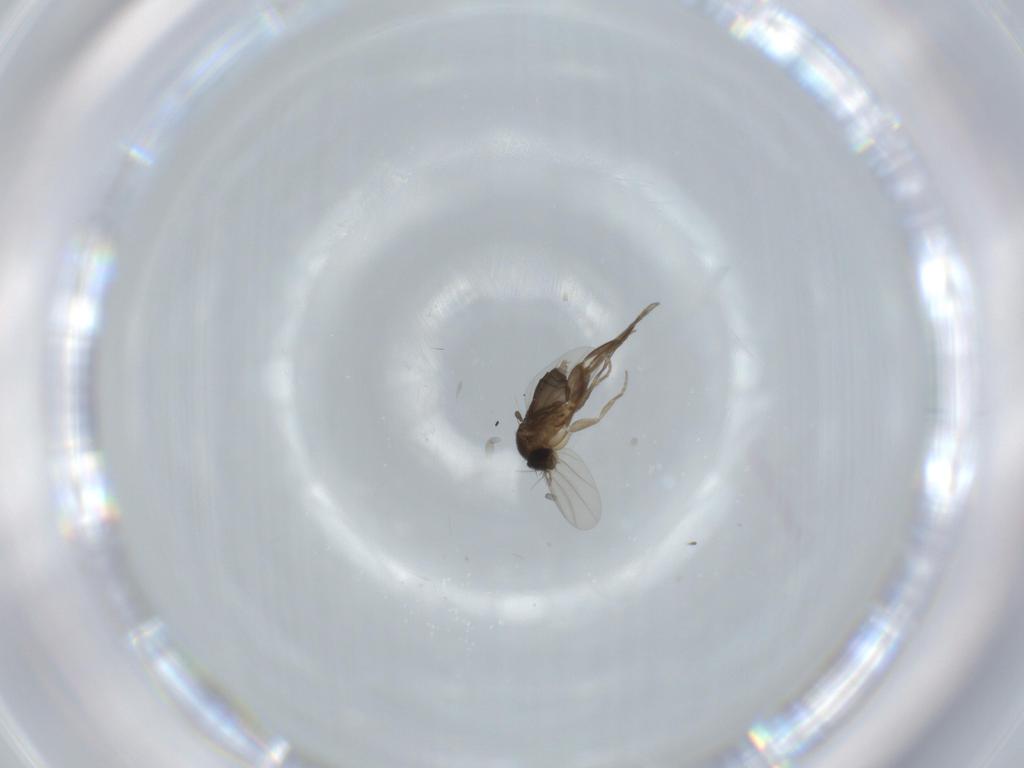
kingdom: Animalia
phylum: Arthropoda
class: Insecta
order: Diptera
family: Phoridae
